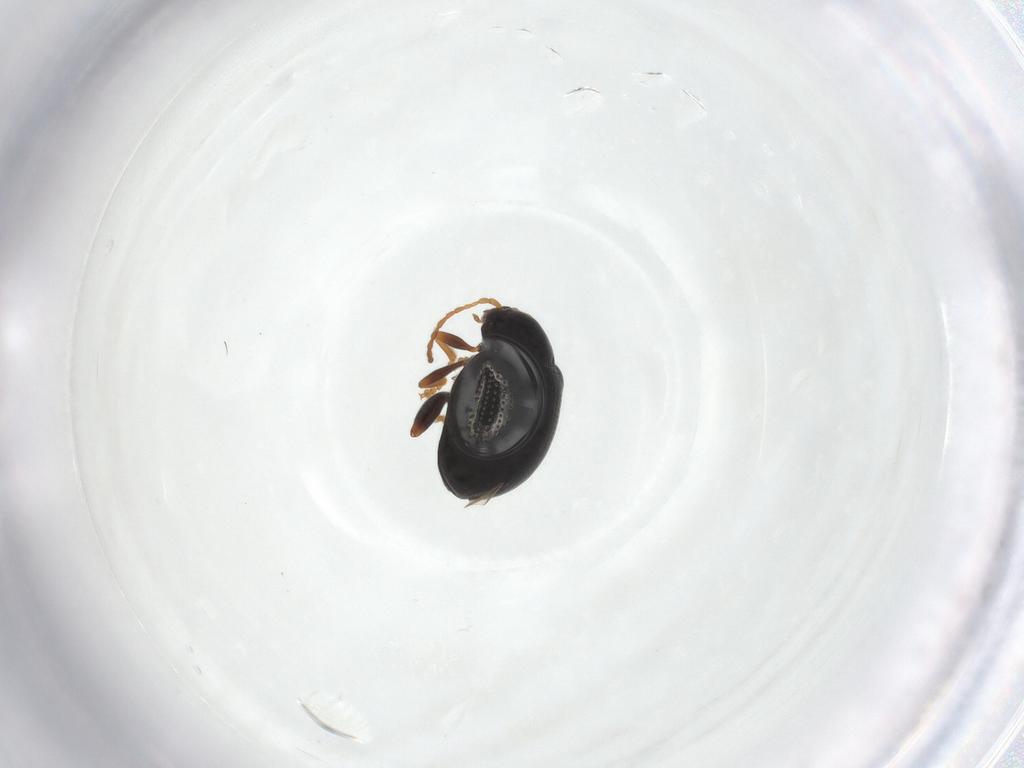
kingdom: Animalia
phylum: Arthropoda
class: Insecta
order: Coleoptera
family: Chrysomelidae
